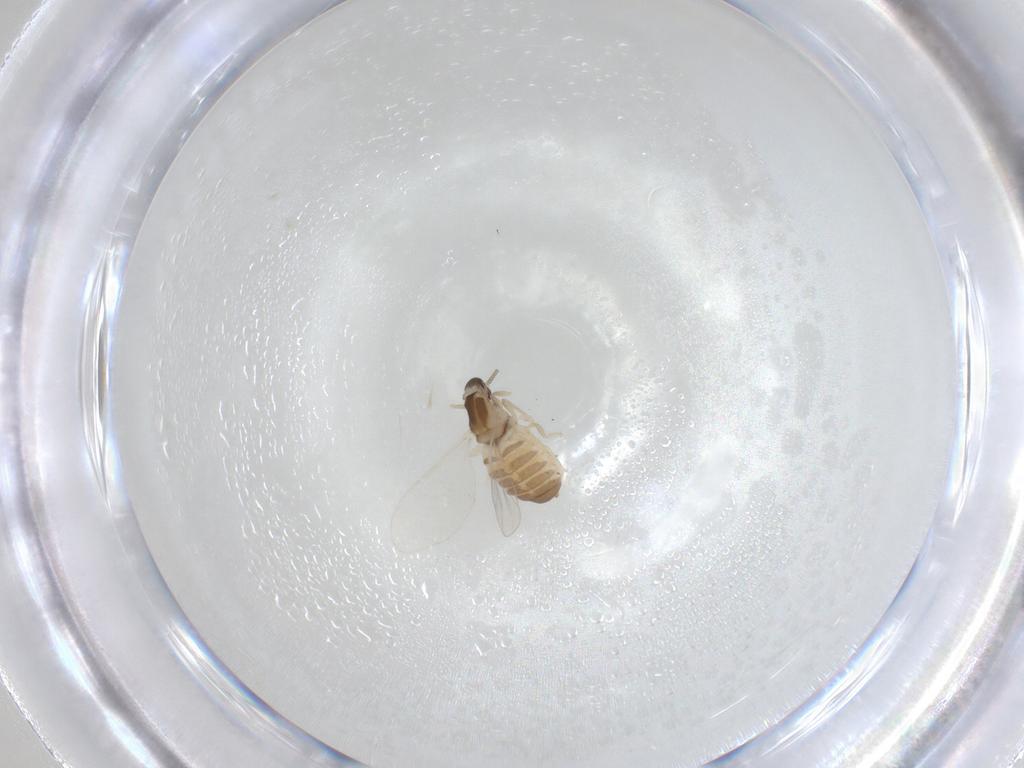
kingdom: Animalia
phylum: Arthropoda
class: Insecta
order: Diptera
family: Cecidomyiidae
